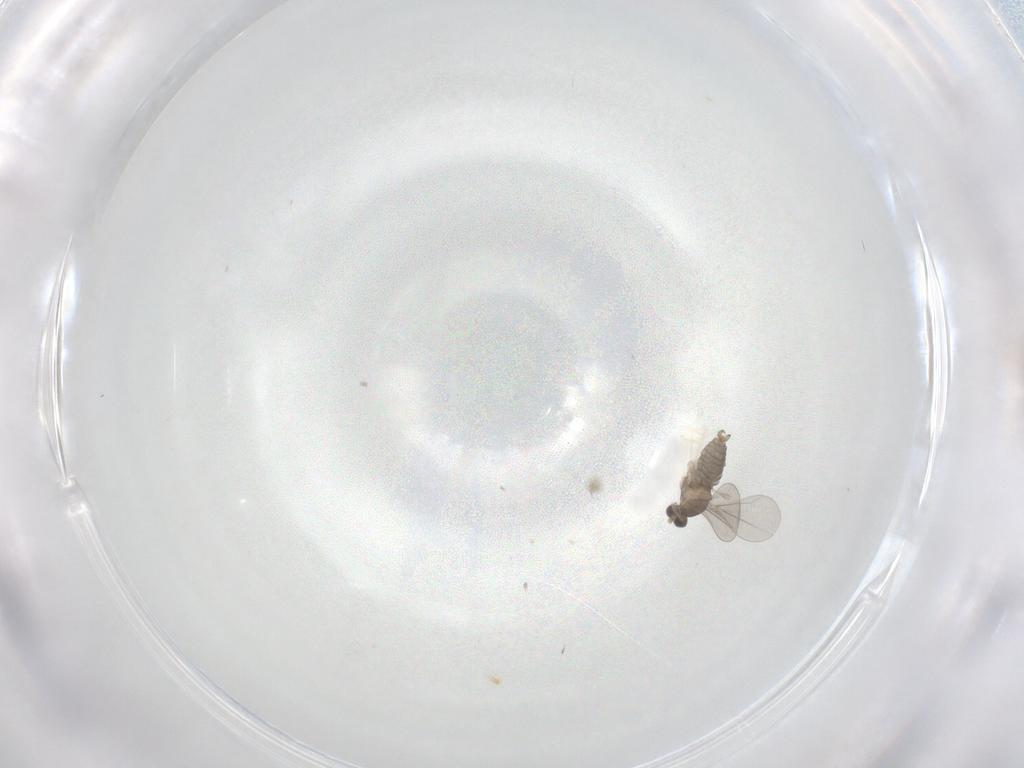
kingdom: Animalia
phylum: Arthropoda
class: Insecta
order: Diptera
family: Cecidomyiidae
